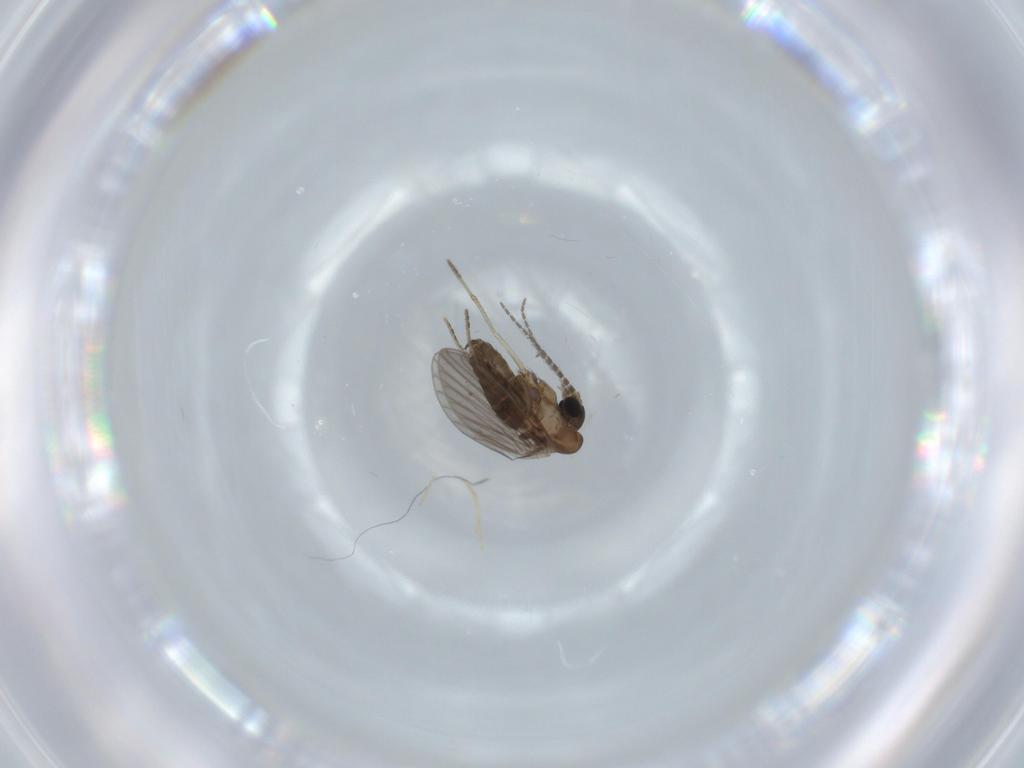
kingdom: Animalia
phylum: Arthropoda
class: Insecta
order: Diptera
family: Psychodidae
